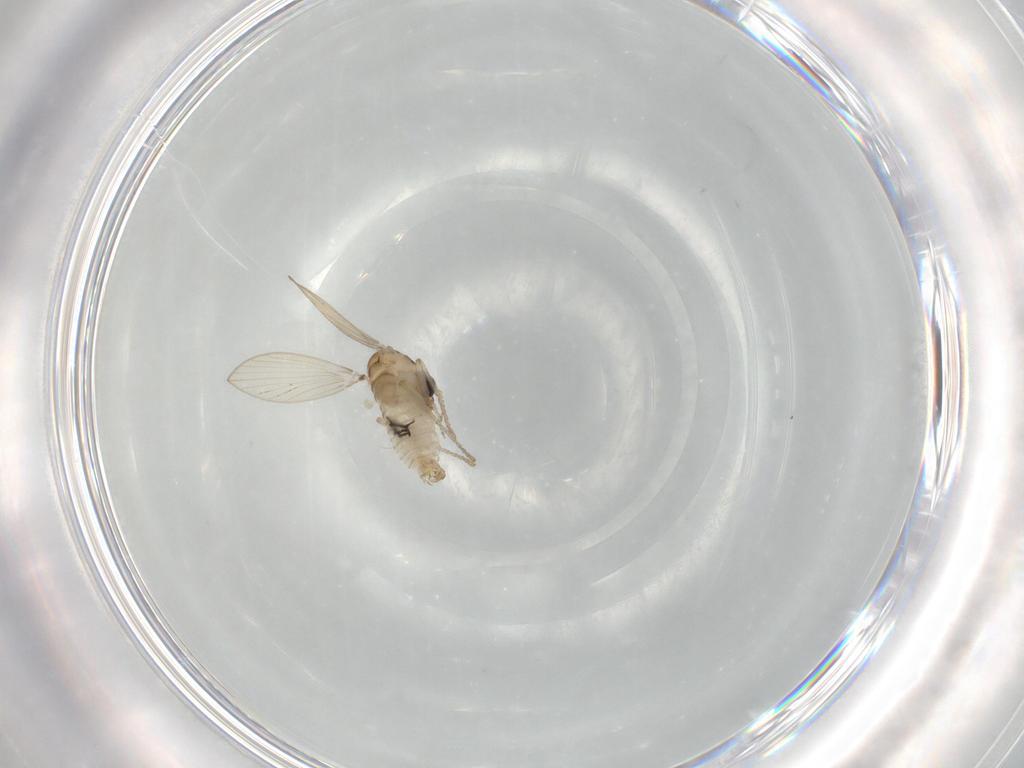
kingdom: Animalia
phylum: Arthropoda
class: Insecta
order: Diptera
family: Psychodidae
